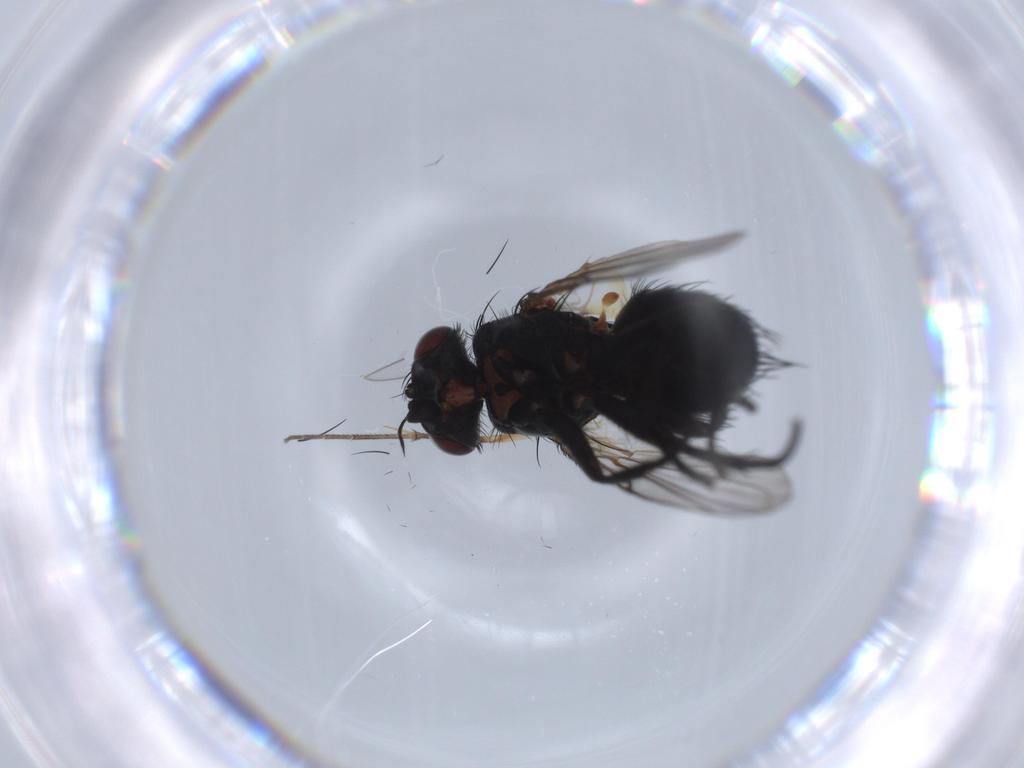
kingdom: Animalia
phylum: Arthropoda
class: Insecta
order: Diptera
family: Tachinidae
